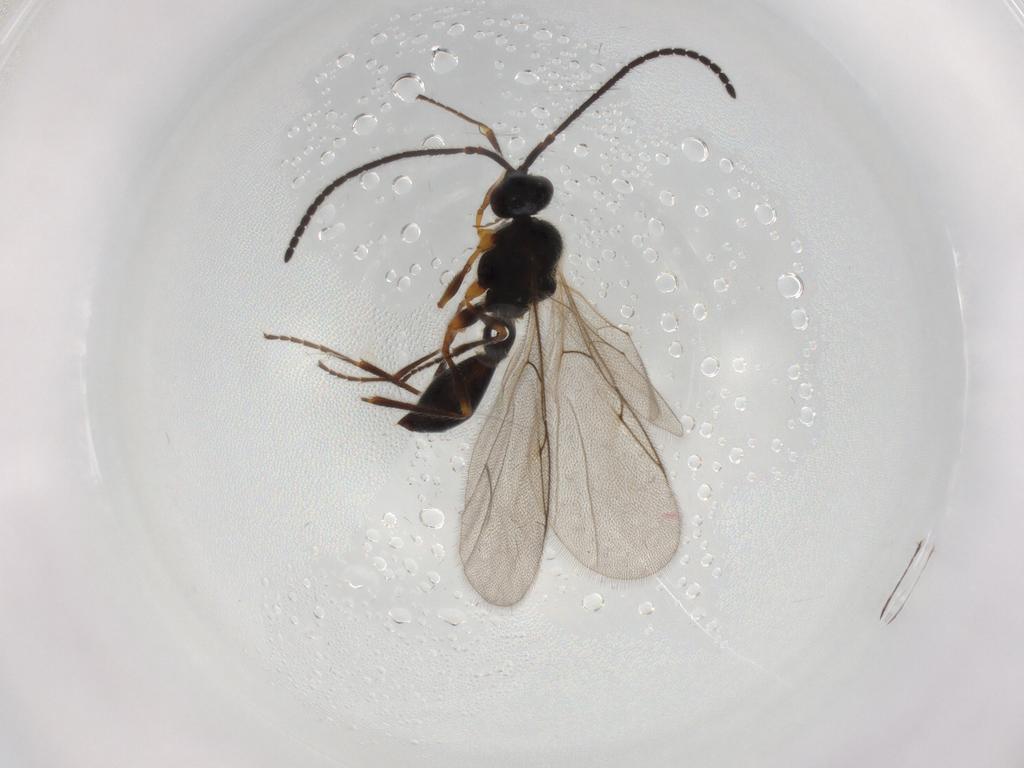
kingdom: Animalia
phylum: Arthropoda
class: Insecta
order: Hymenoptera
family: Diapriidae
